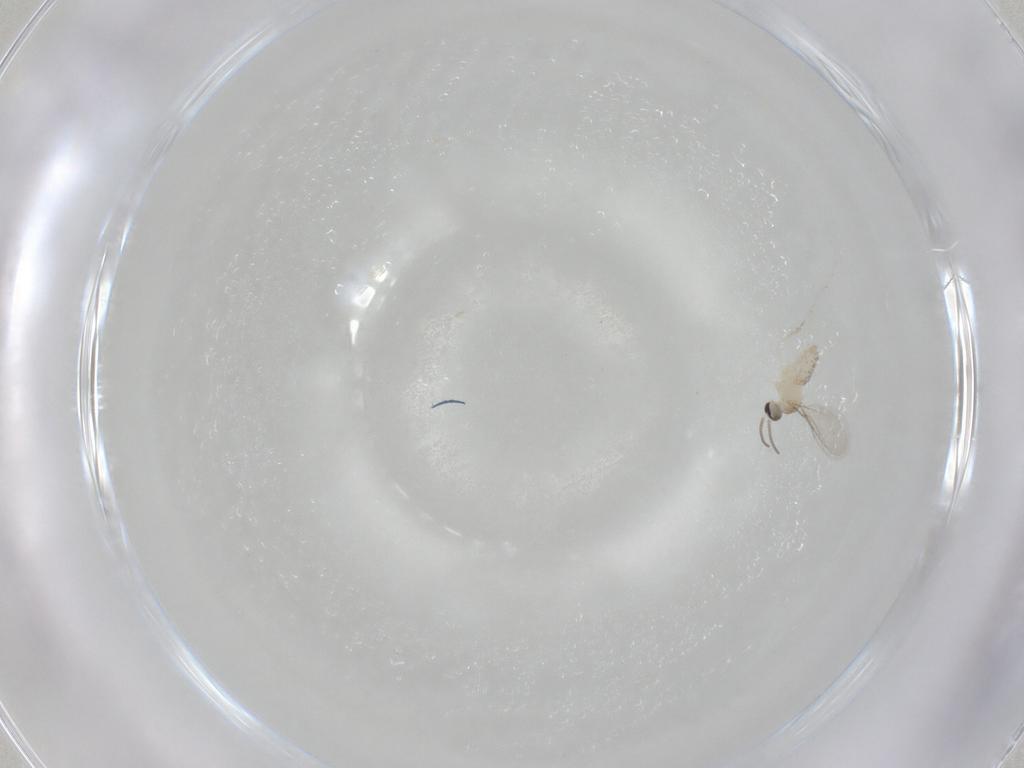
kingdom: Animalia
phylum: Arthropoda
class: Insecta
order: Diptera
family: Cecidomyiidae
